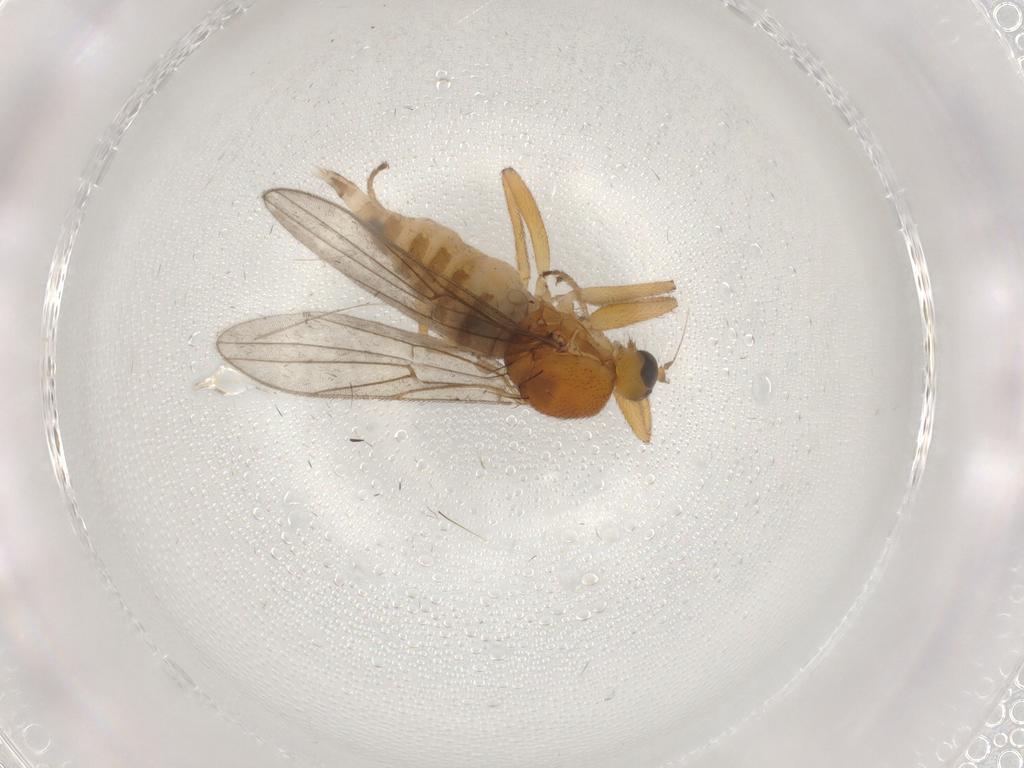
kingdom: Animalia
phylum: Arthropoda
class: Insecta
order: Diptera
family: Hybotidae
